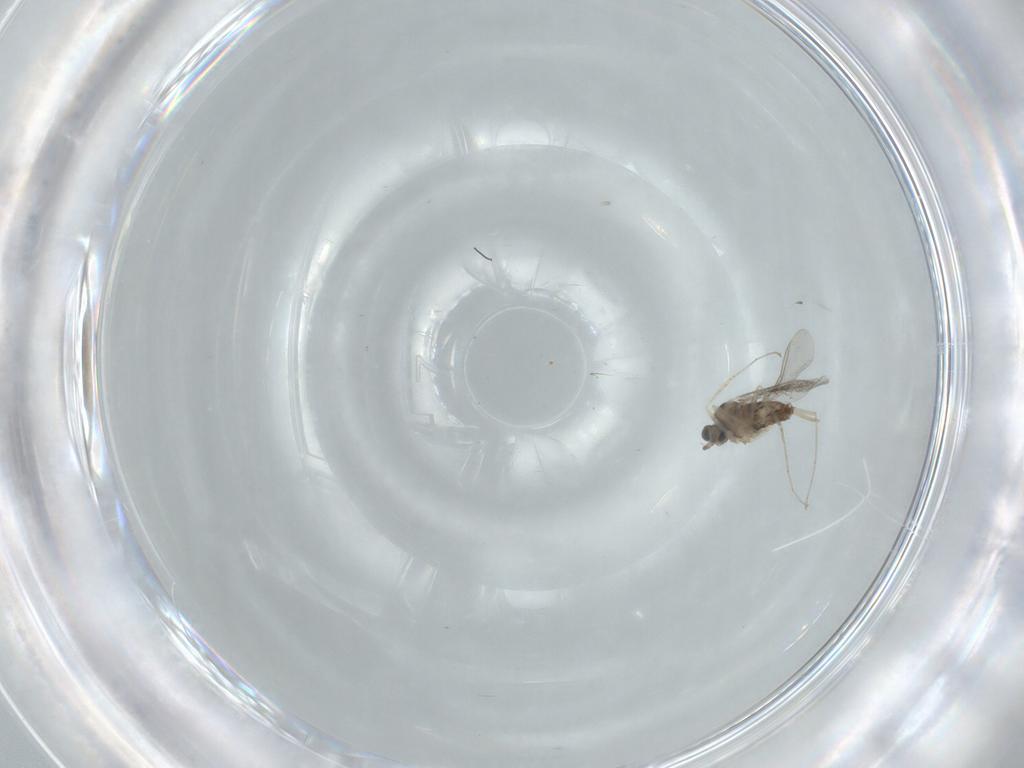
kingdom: Animalia
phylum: Arthropoda
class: Insecta
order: Diptera
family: Cecidomyiidae
